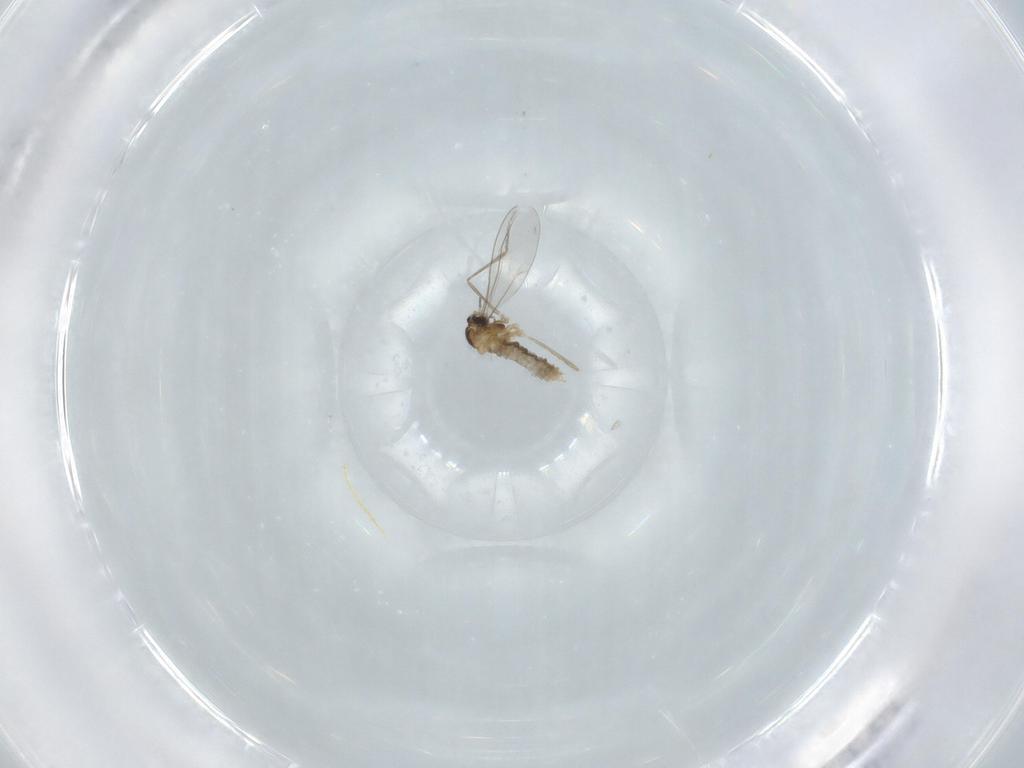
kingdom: Animalia
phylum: Arthropoda
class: Insecta
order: Diptera
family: Cecidomyiidae
